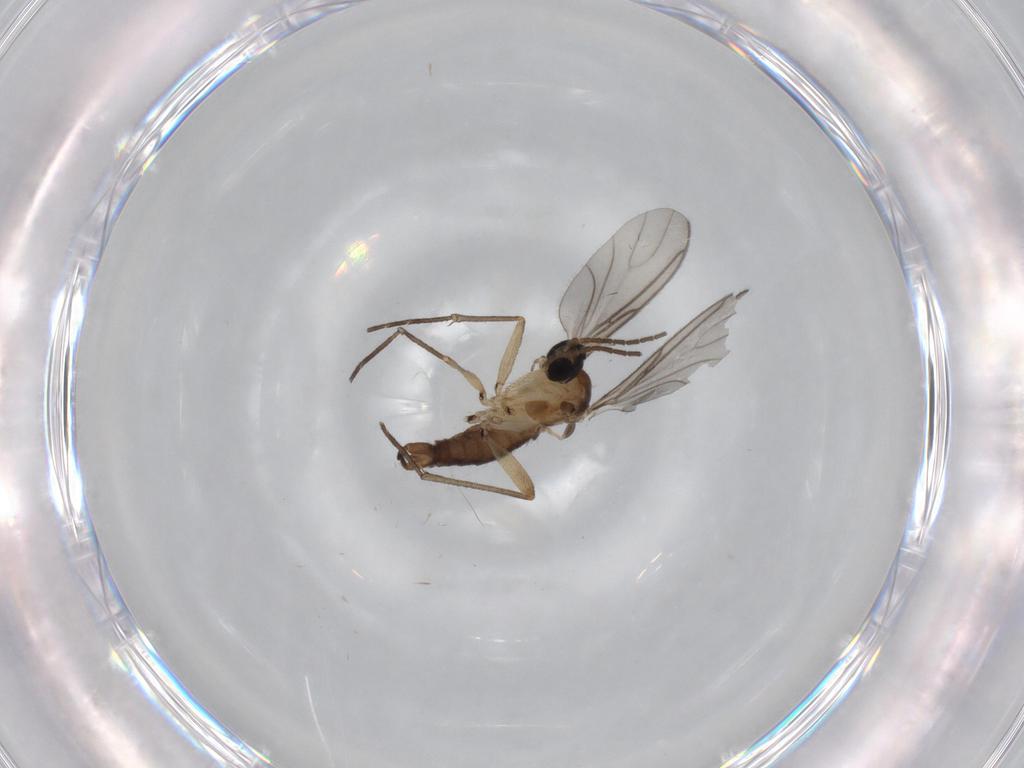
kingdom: Animalia
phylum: Arthropoda
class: Insecta
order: Diptera
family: Sciaridae
